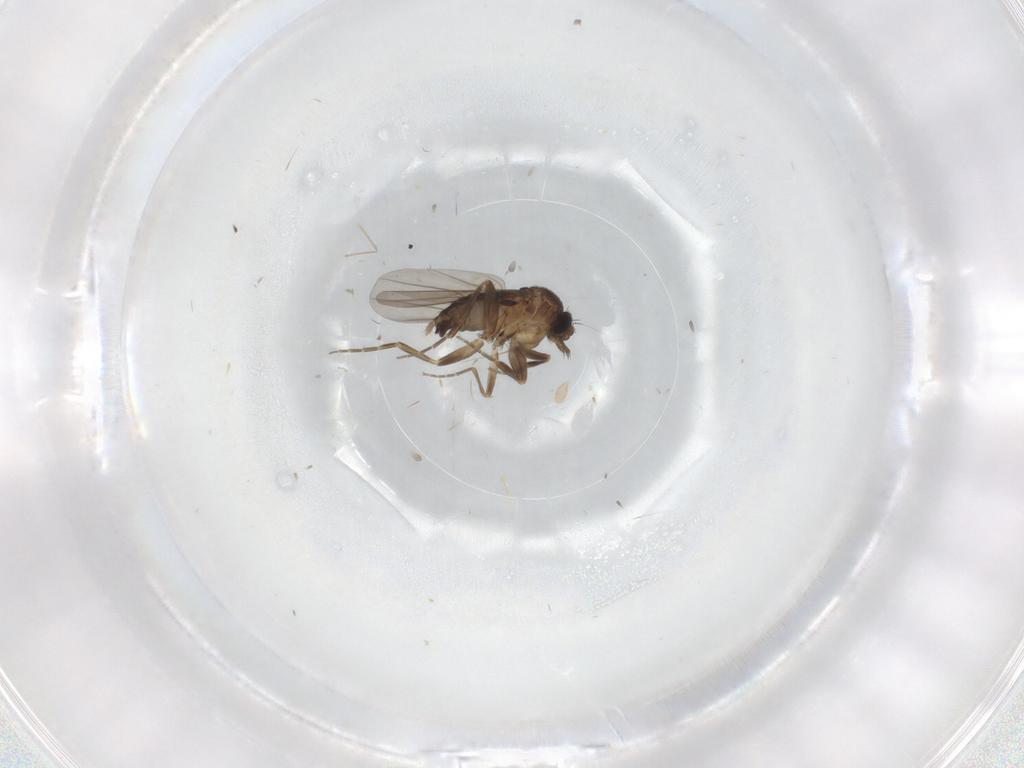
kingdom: Animalia
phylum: Arthropoda
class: Insecta
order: Diptera
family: Cecidomyiidae
